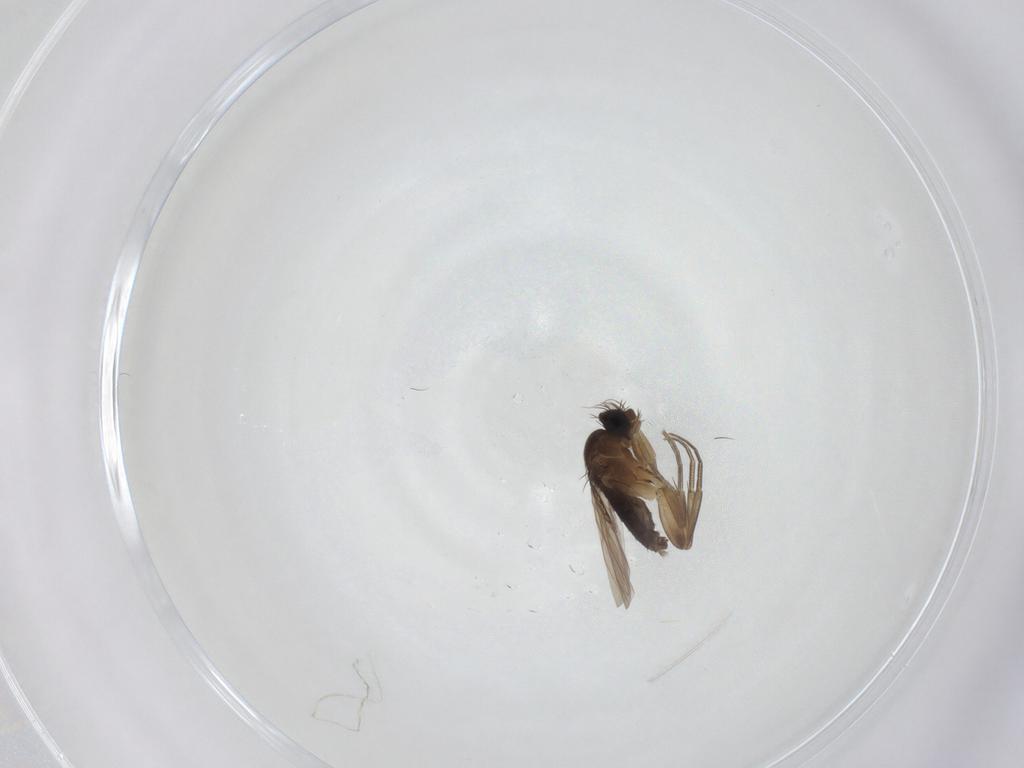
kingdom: Animalia
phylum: Arthropoda
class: Insecta
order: Diptera
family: Phoridae
